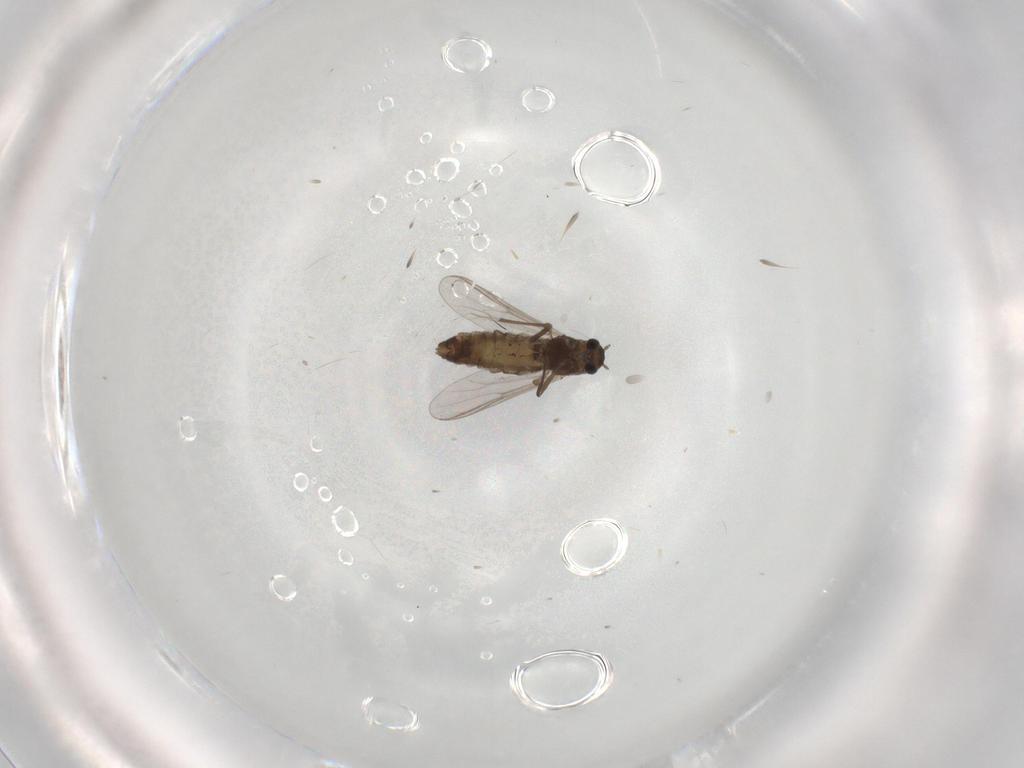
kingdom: Animalia
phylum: Arthropoda
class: Insecta
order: Diptera
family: Chironomidae
